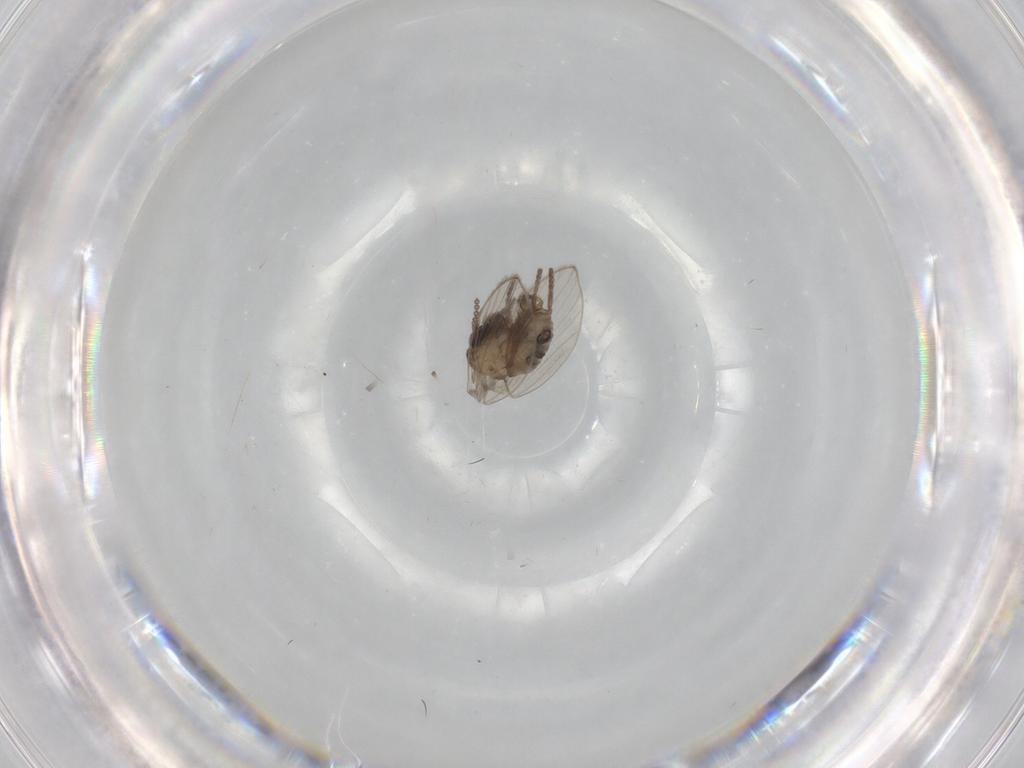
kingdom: Animalia
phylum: Arthropoda
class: Insecta
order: Diptera
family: Psychodidae
